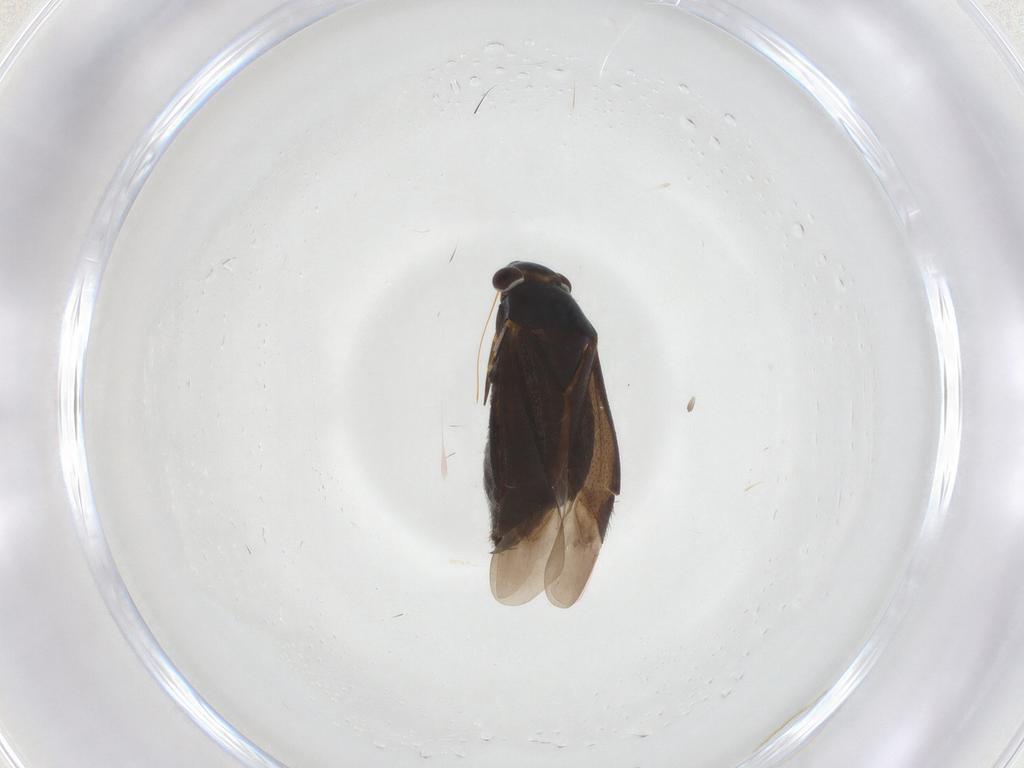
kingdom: Animalia
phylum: Arthropoda
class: Insecta
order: Hemiptera
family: Miridae
